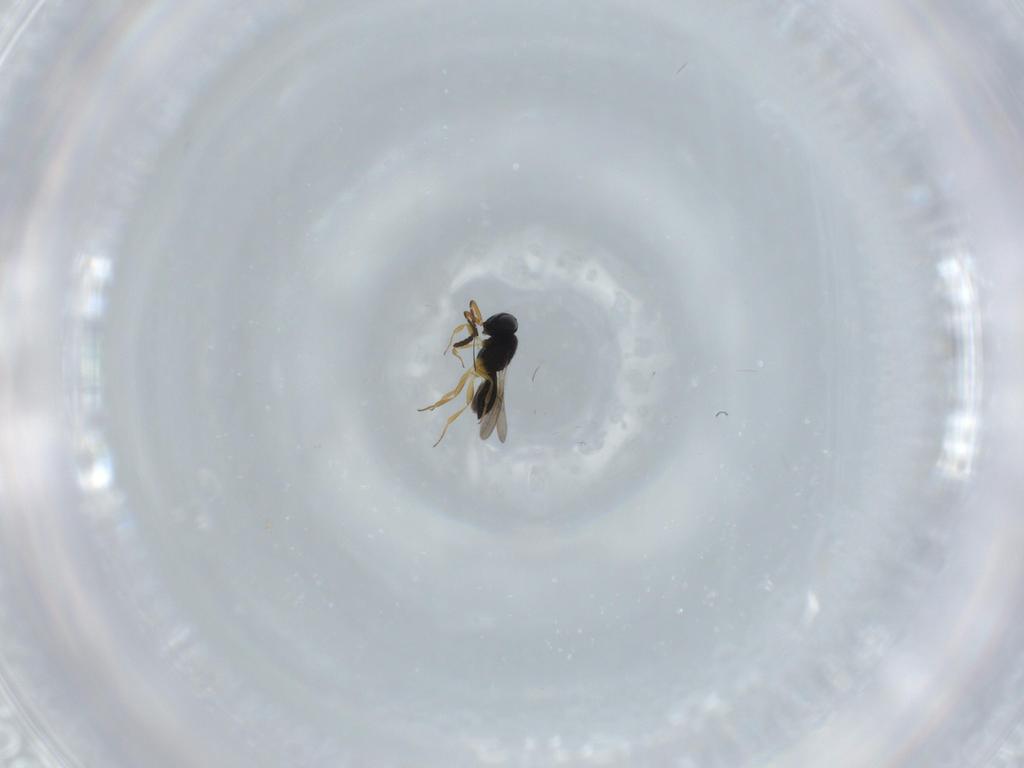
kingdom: Animalia
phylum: Arthropoda
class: Insecta
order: Hymenoptera
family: Scelionidae
